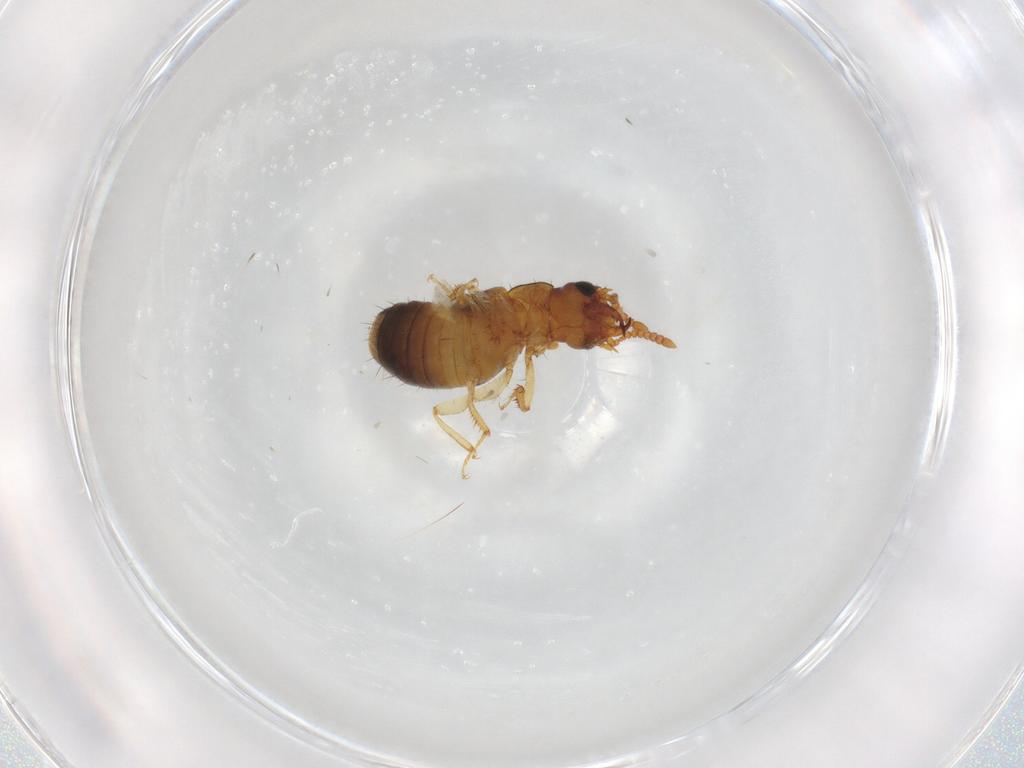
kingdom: Animalia
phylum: Arthropoda
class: Insecta
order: Coleoptera
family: Staphylinidae
